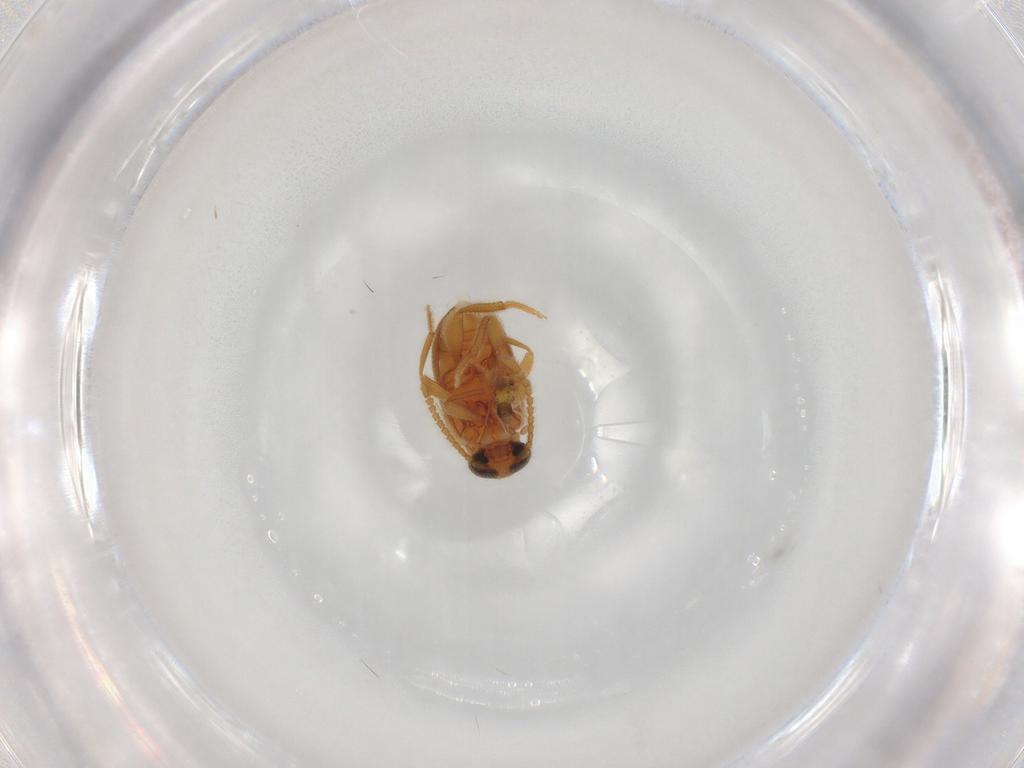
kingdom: Animalia
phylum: Arthropoda
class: Insecta
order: Coleoptera
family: Aderidae
